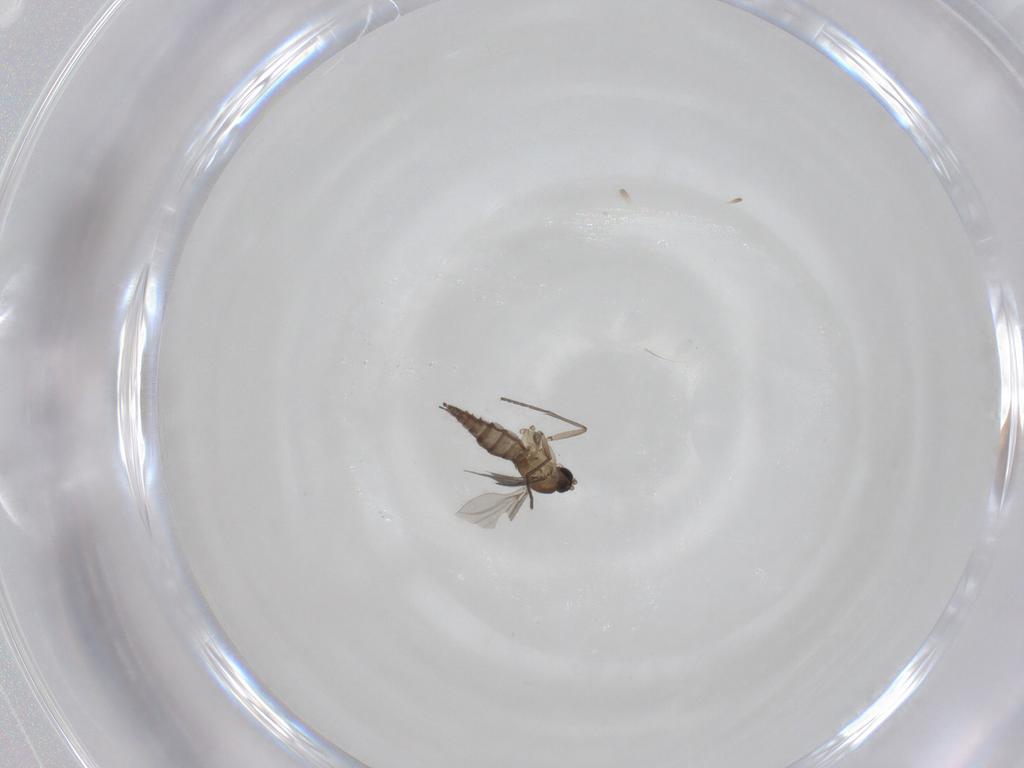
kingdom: Animalia
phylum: Arthropoda
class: Insecta
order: Diptera
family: Sciaridae
